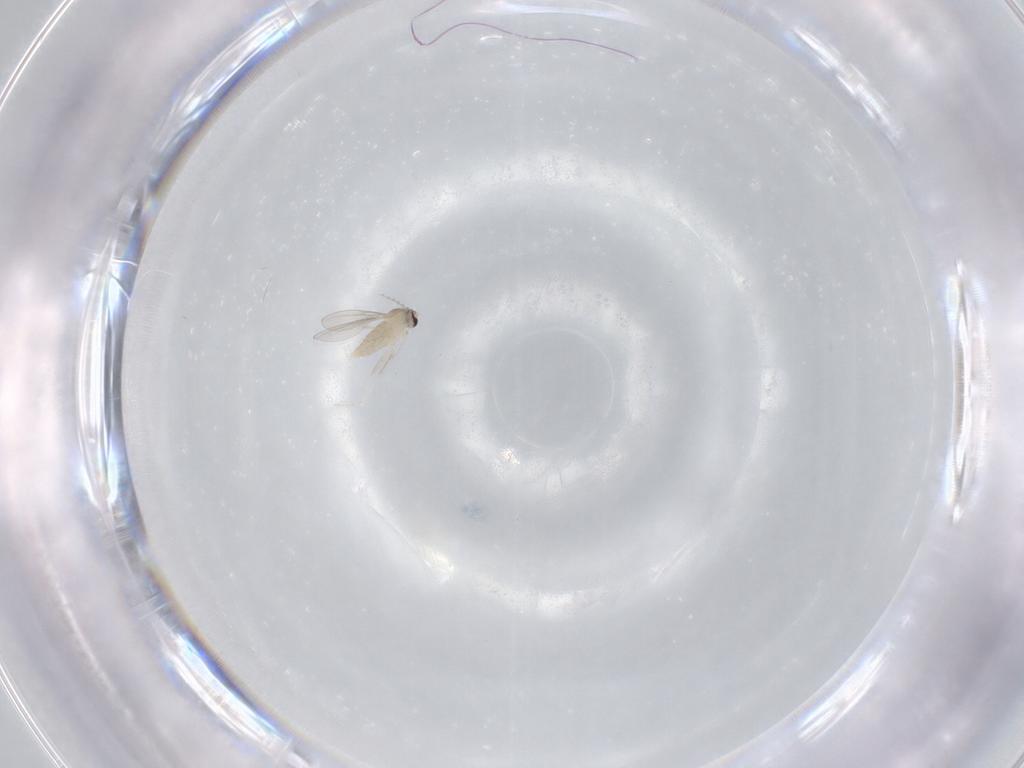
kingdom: Animalia
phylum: Arthropoda
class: Insecta
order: Diptera
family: Cecidomyiidae
